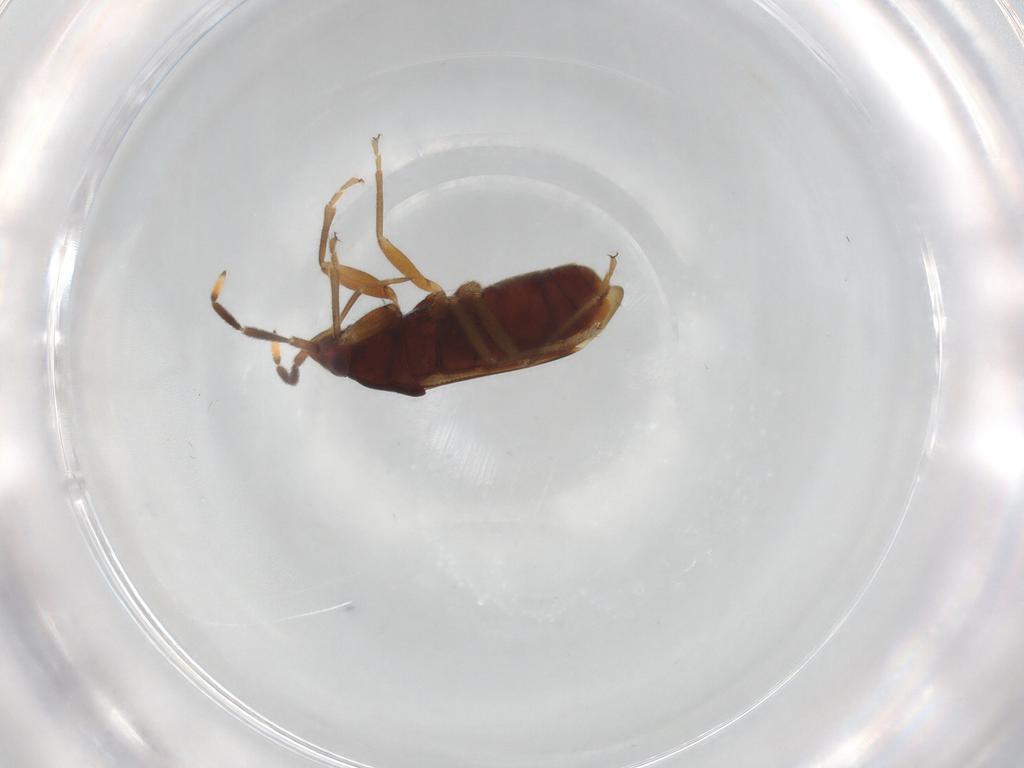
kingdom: Animalia
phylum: Arthropoda
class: Insecta
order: Hemiptera
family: Rhyparochromidae
